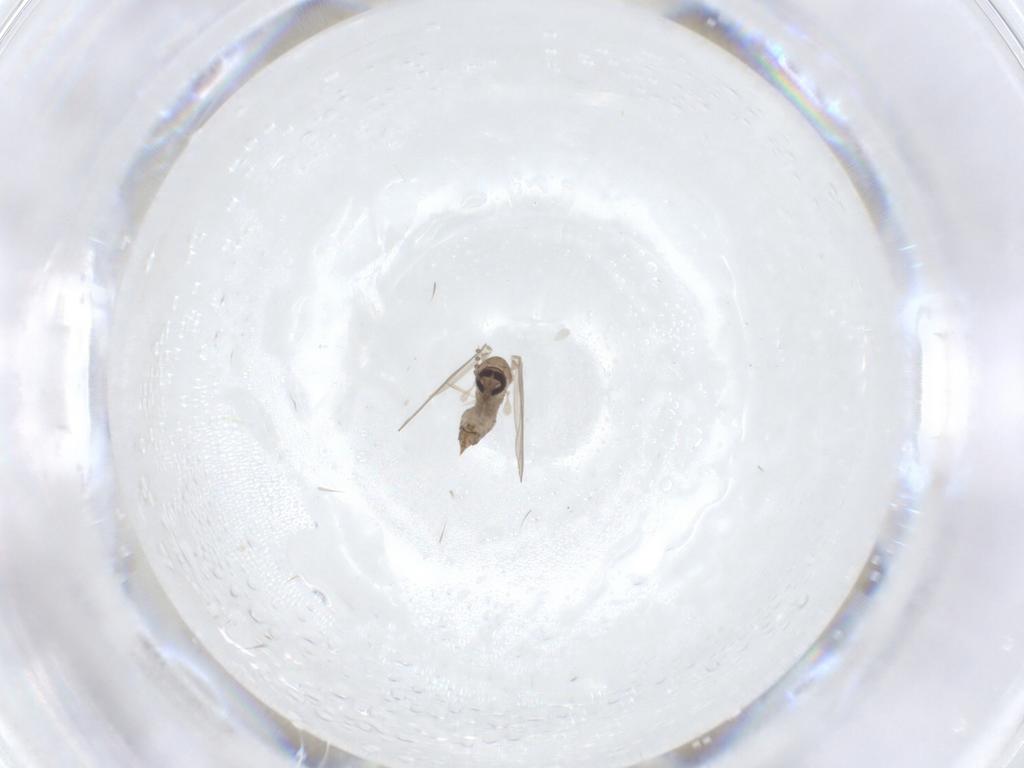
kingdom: Animalia
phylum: Arthropoda
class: Insecta
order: Diptera
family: Psychodidae
